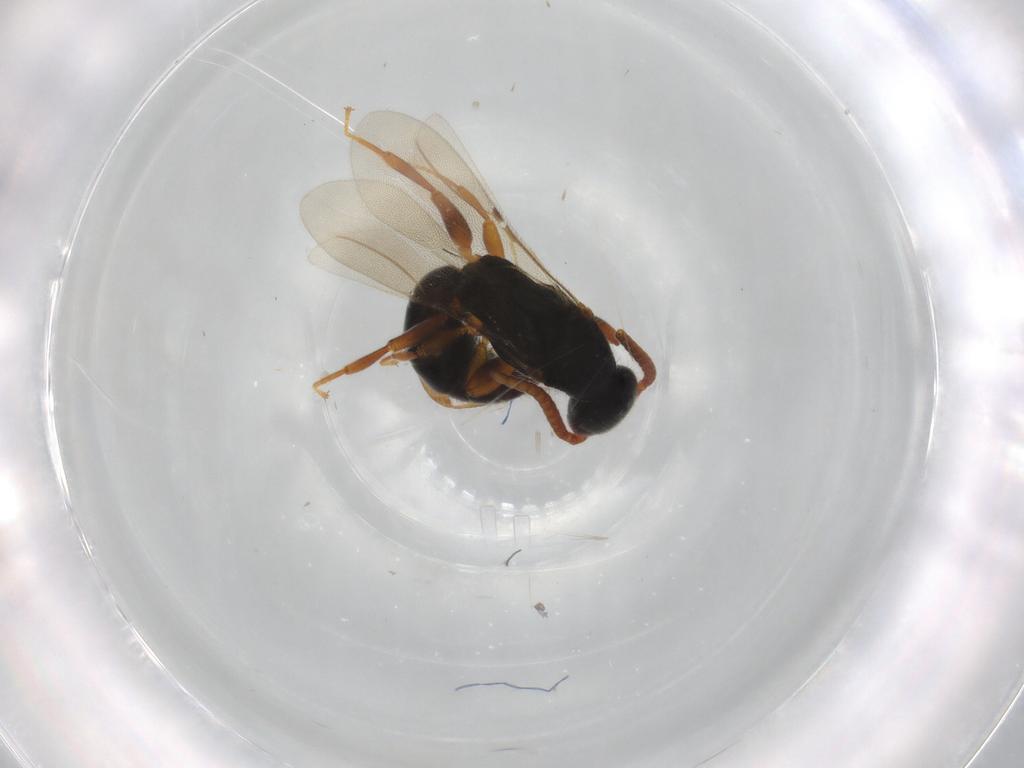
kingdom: Animalia
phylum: Arthropoda
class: Insecta
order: Hymenoptera
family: Bethylidae
